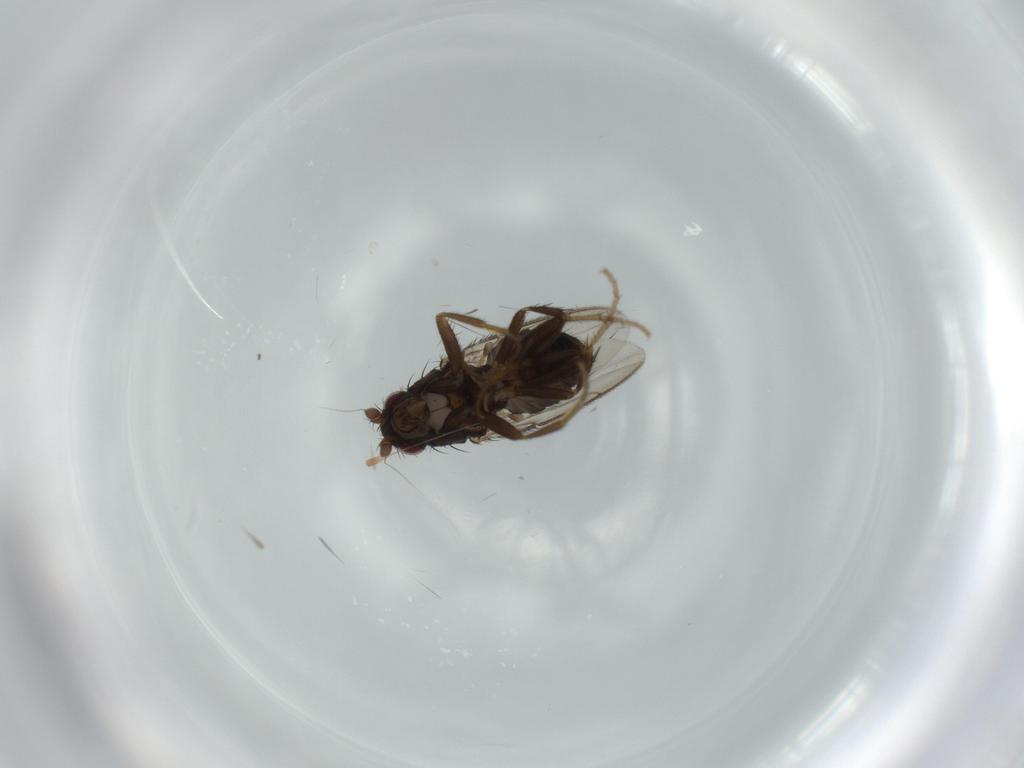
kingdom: Animalia
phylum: Arthropoda
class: Insecta
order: Diptera
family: Sphaeroceridae
